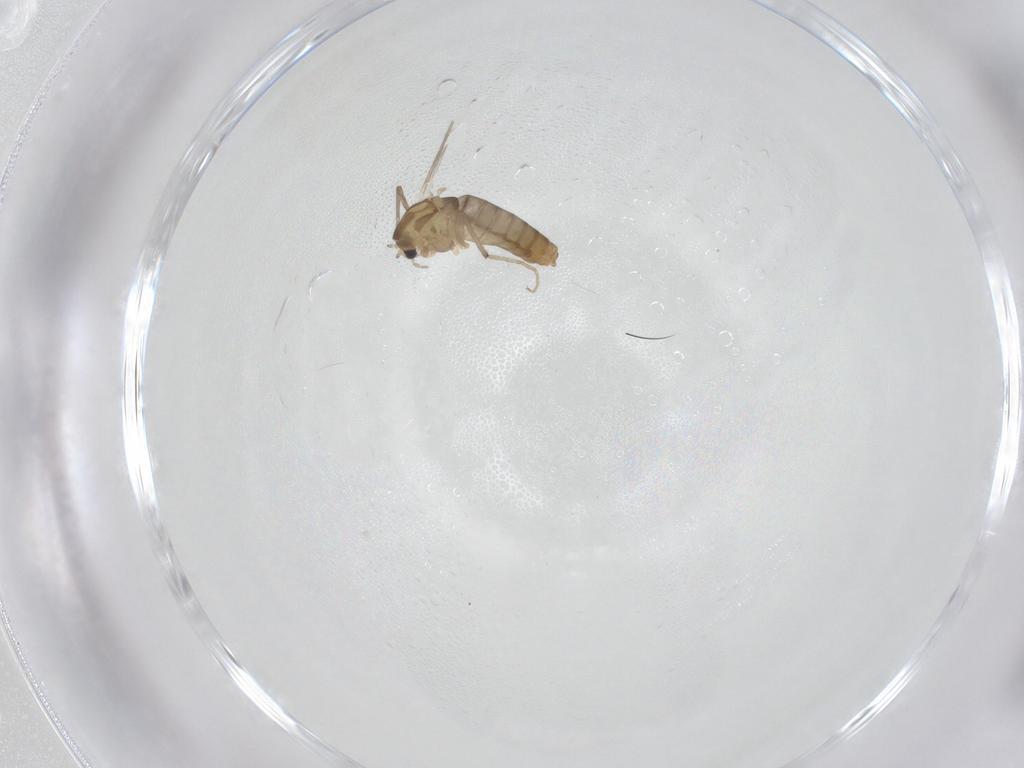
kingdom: Animalia
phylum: Arthropoda
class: Insecta
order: Diptera
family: Chironomidae
